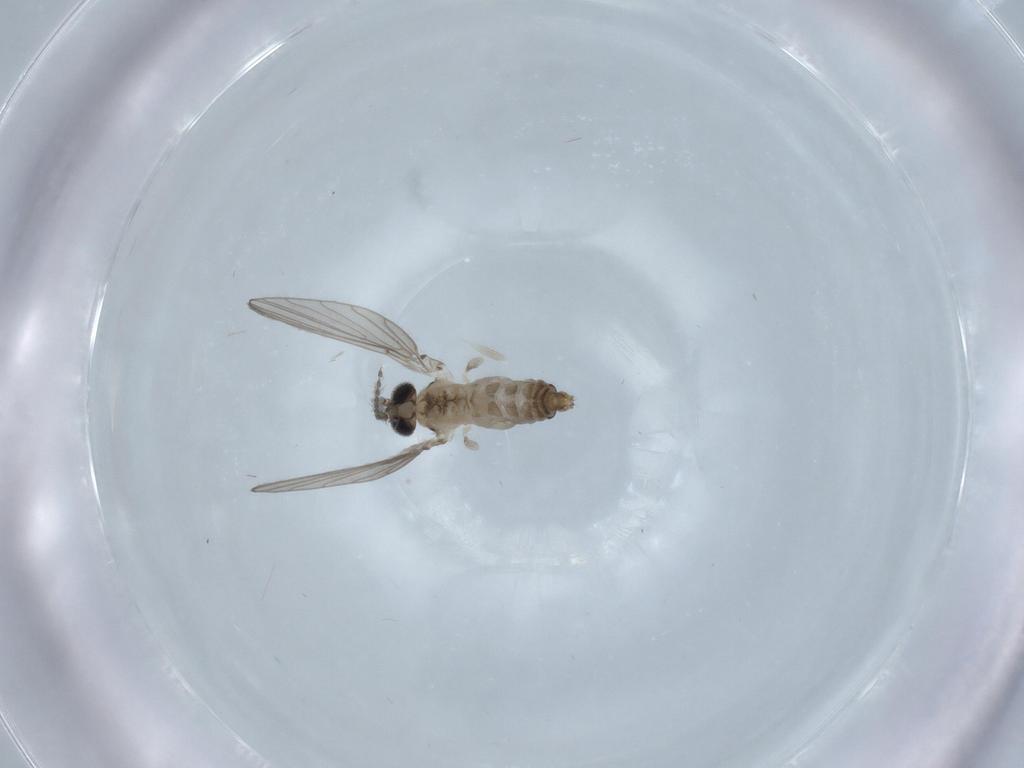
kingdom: Animalia
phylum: Arthropoda
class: Insecta
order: Diptera
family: Psychodidae
